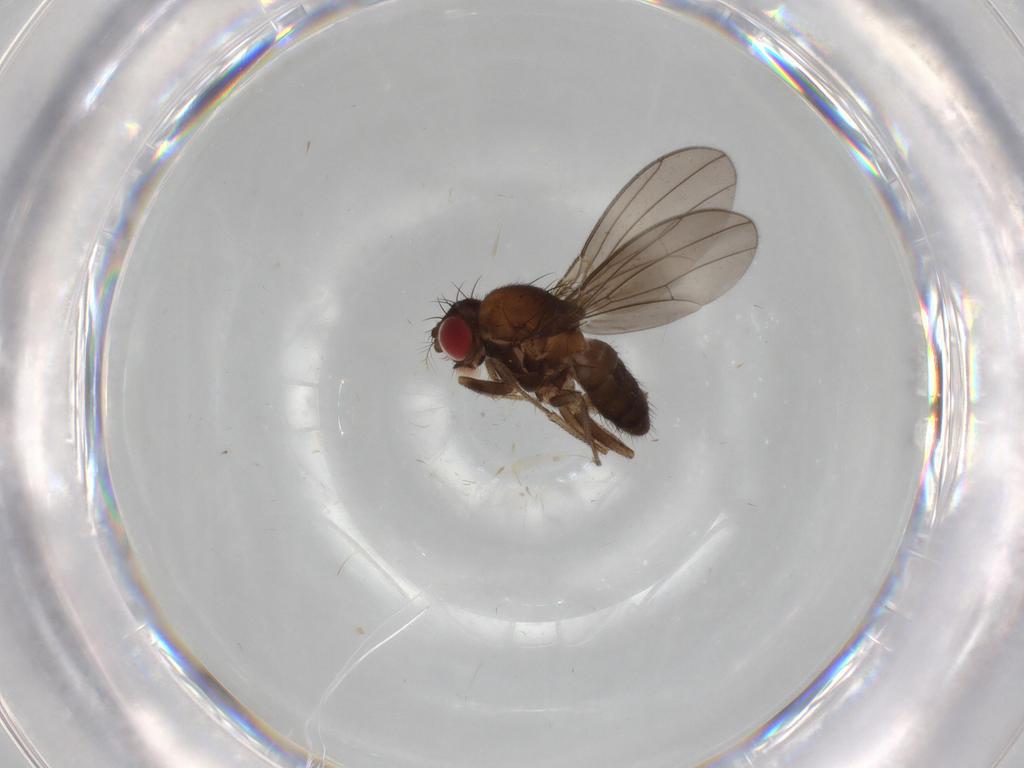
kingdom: Animalia
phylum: Arthropoda
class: Insecta
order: Diptera
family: Drosophilidae
